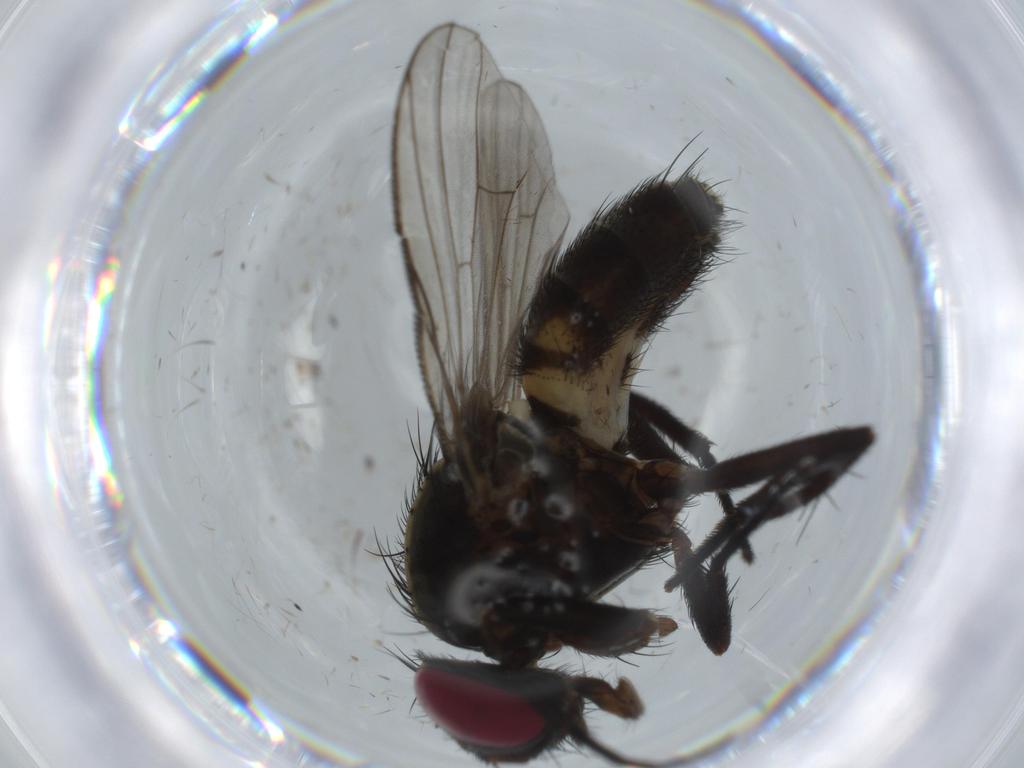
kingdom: Animalia
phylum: Arthropoda
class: Insecta
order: Diptera
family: Fannia
